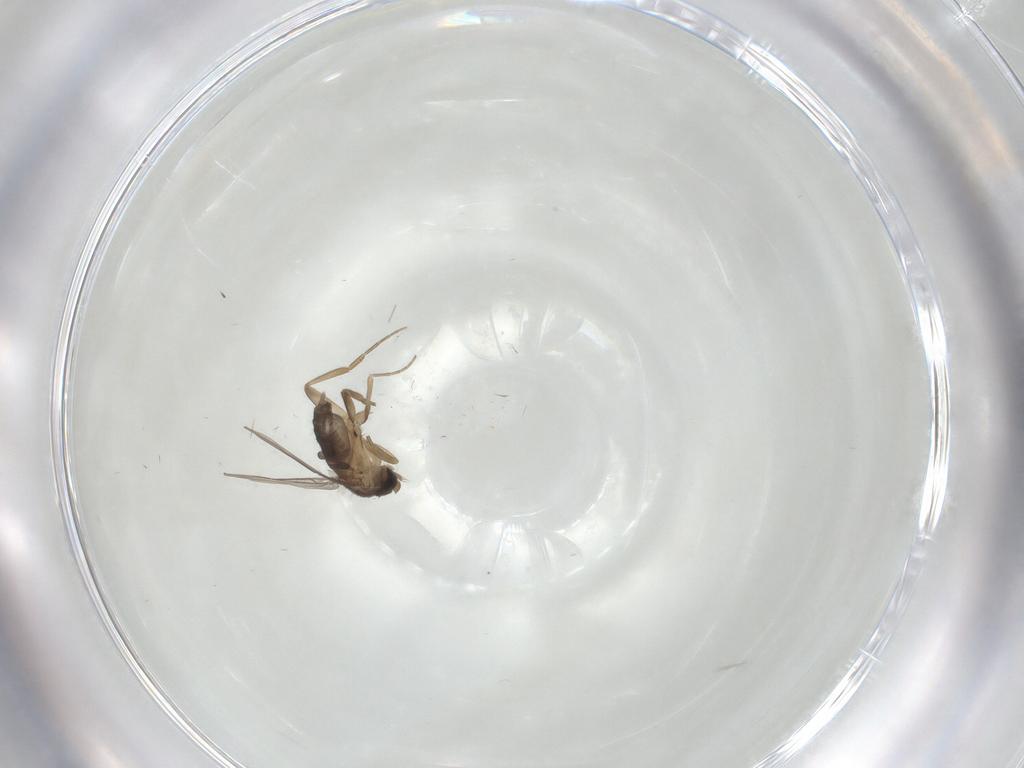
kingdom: Animalia
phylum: Arthropoda
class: Insecta
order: Diptera
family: Phoridae
